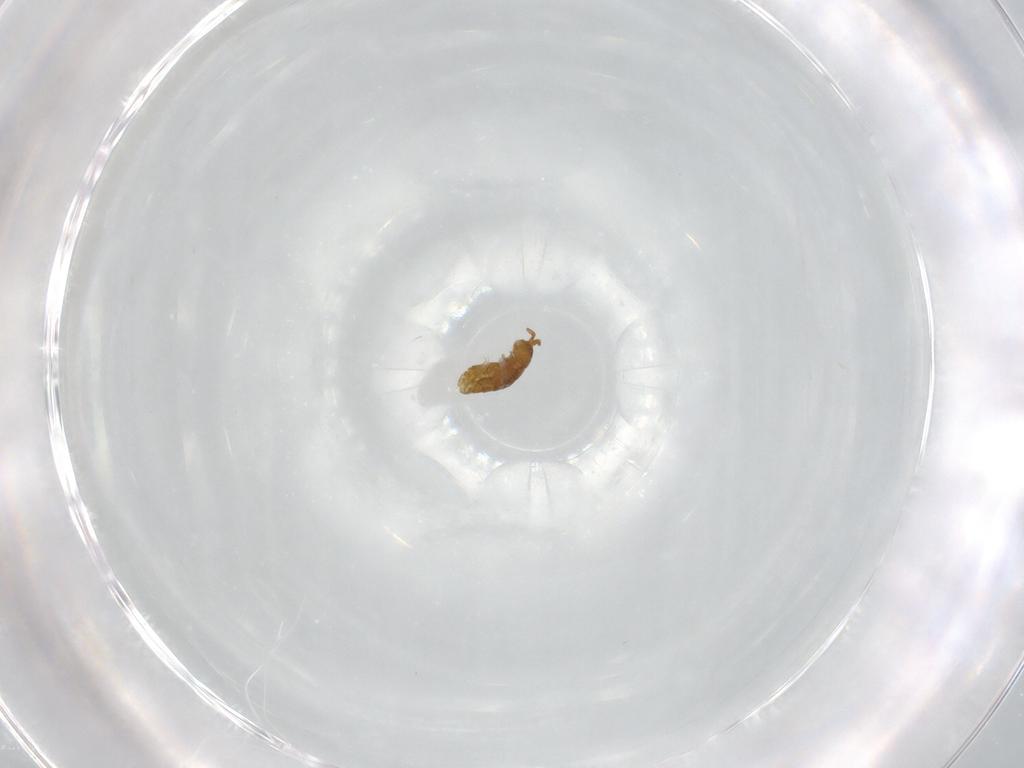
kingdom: Animalia
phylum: Arthropoda
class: Collembola
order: Entomobryomorpha
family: Isotomidae
